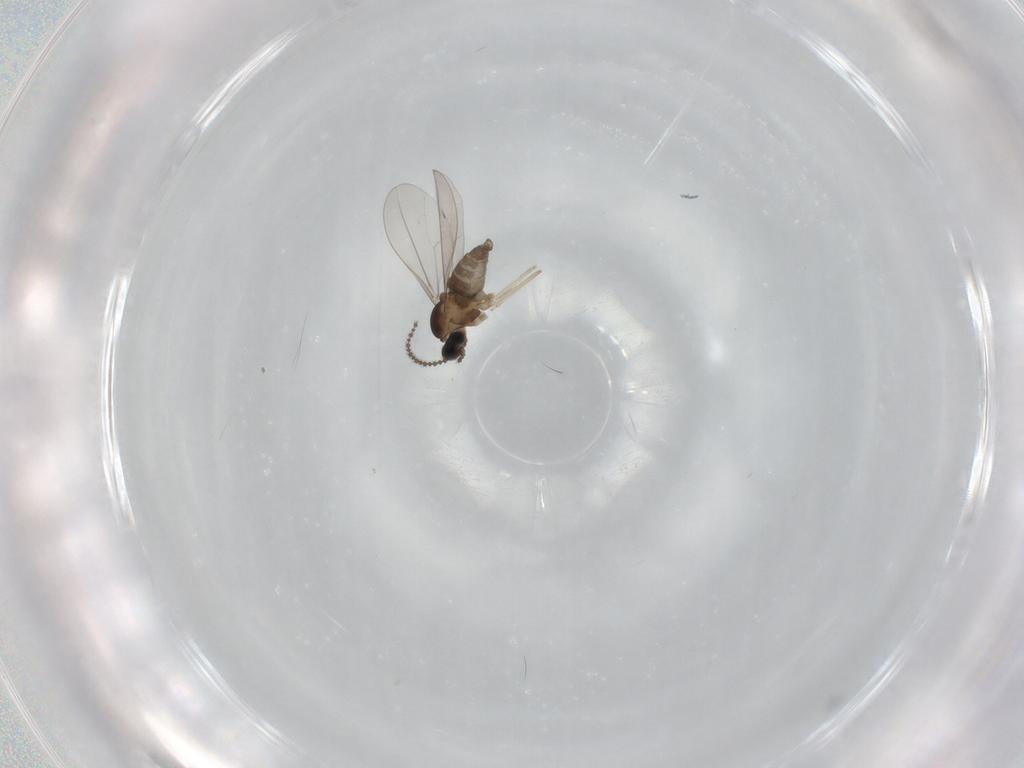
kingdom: Animalia
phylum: Arthropoda
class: Insecta
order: Diptera
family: Cecidomyiidae
